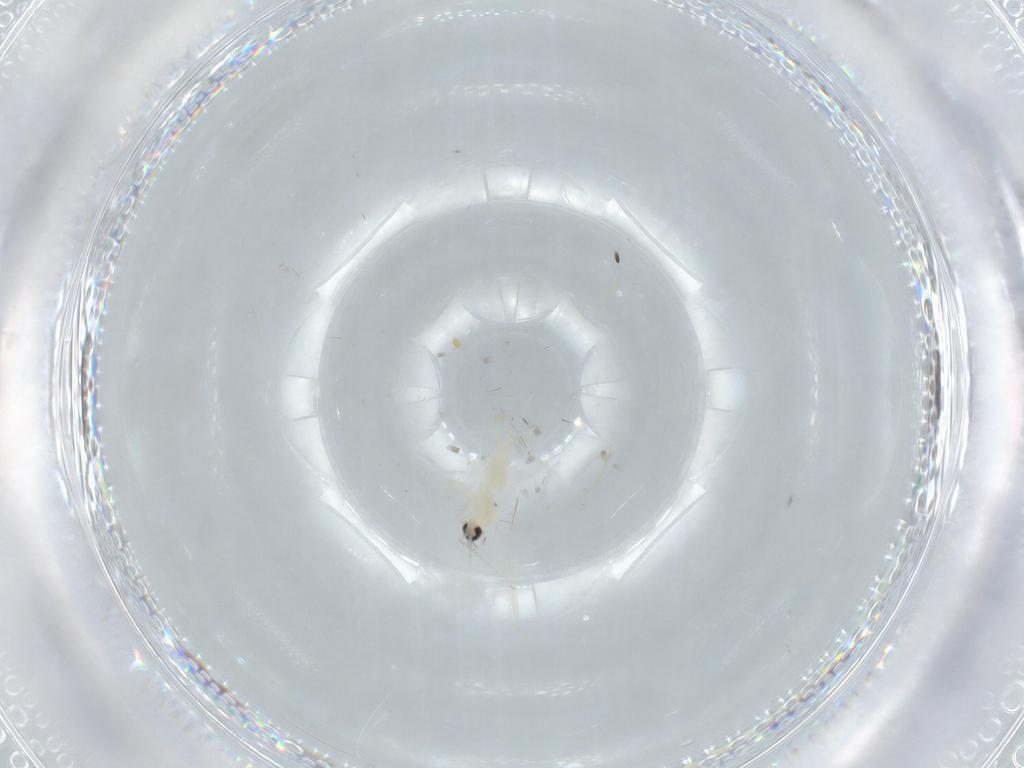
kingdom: Animalia
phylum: Arthropoda
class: Insecta
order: Diptera
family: Cecidomyiidae
